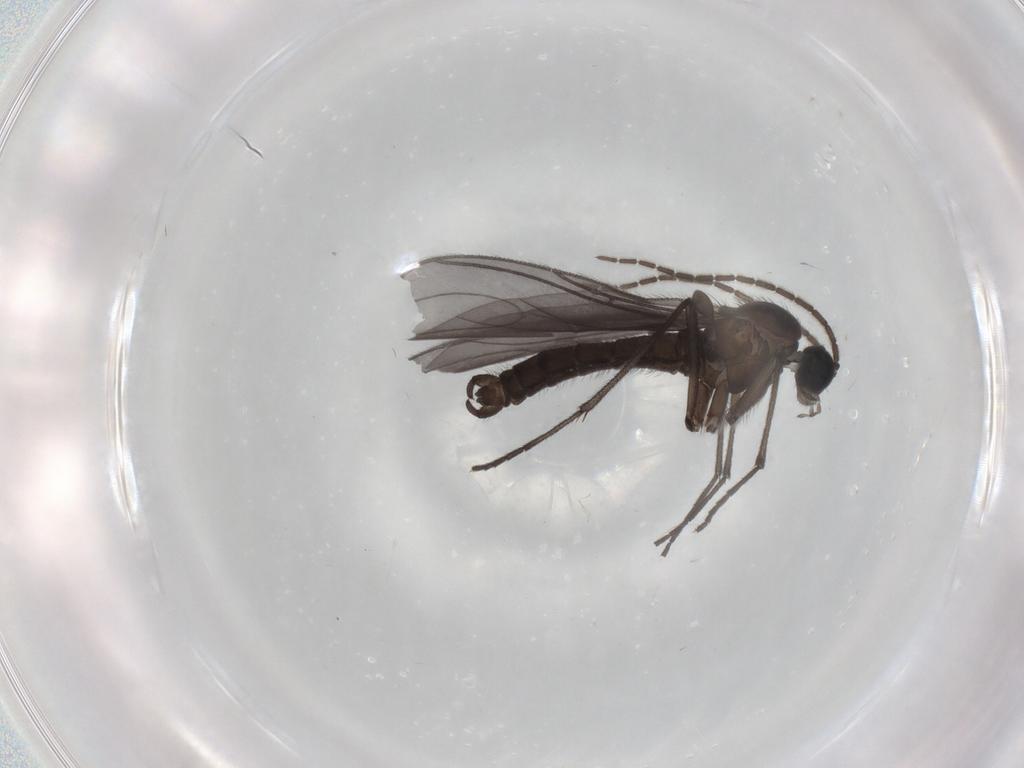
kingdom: Animalia
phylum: Arthropoda
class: Insecta
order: Diptera
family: Sciaridae
